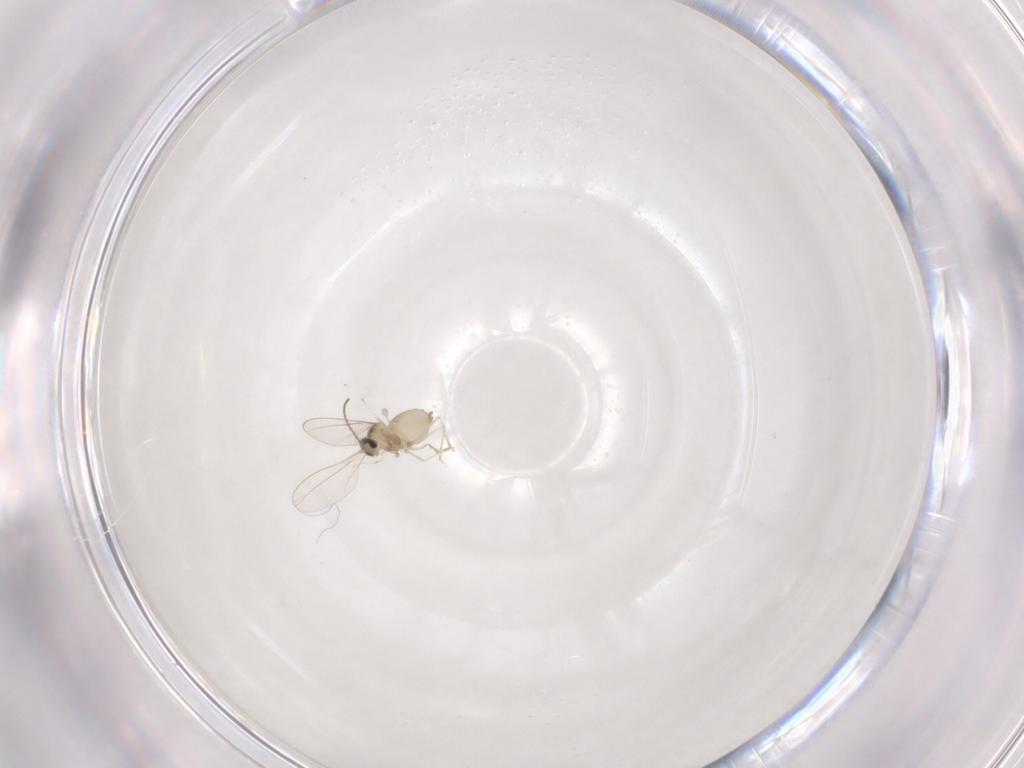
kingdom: Animalia
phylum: Arthropoda
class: Insecta
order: Diptera
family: Cecidomyiidae
